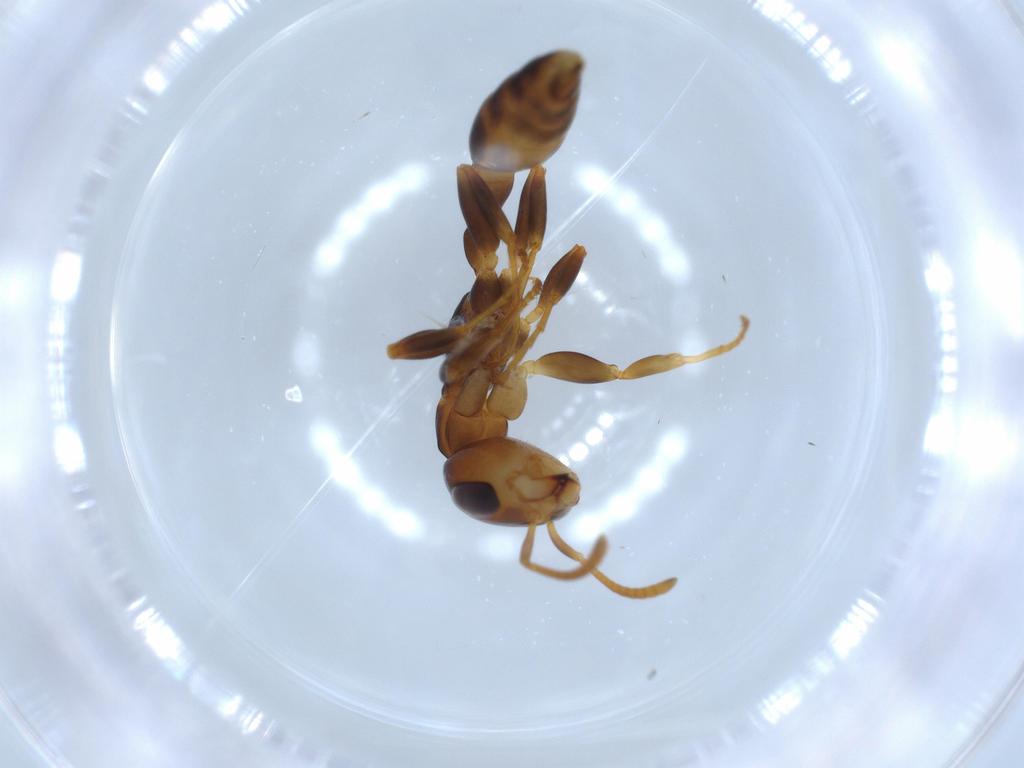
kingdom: Animalia
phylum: Arthropoda
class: Insecta
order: Hymenoptera
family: Formicidae
